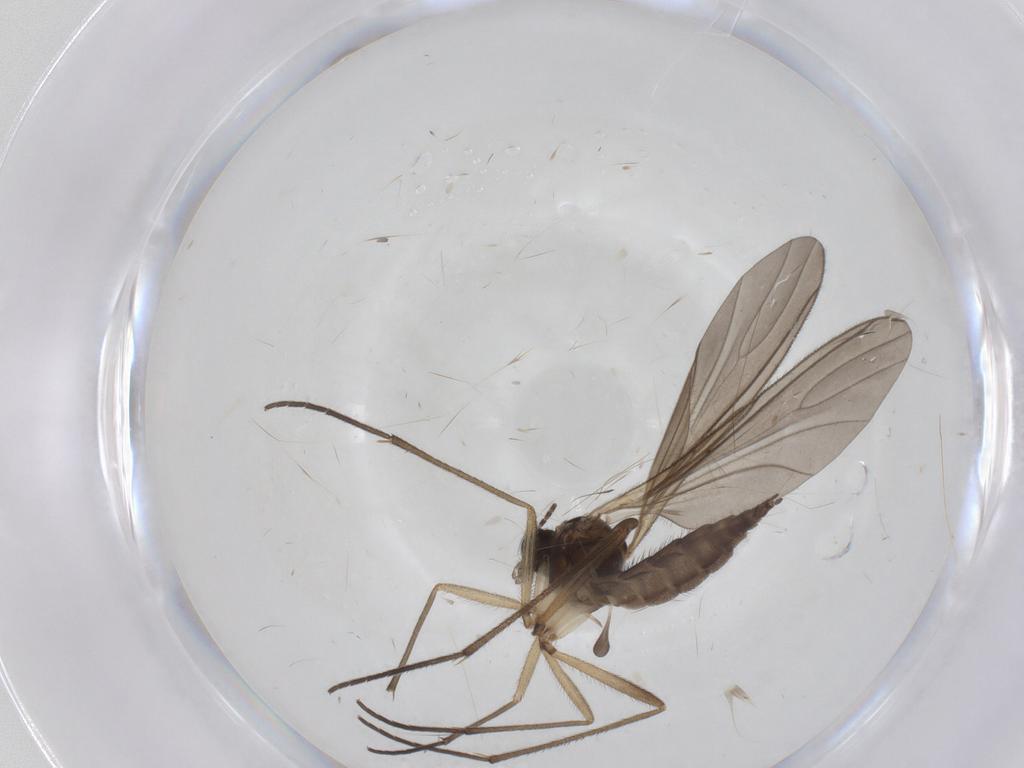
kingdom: Animalia
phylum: Arthropoda
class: Insecta
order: Diptera
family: Sciaridae
